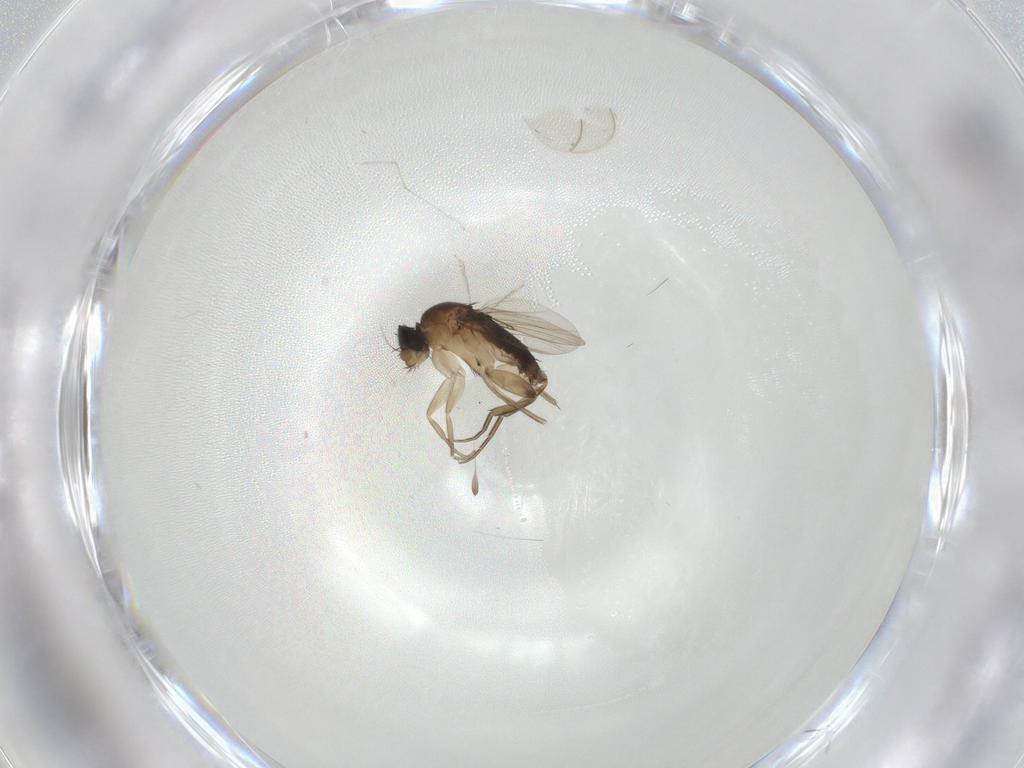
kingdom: Animalia
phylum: Arthropoda
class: Insecta
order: Diptera
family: Phoridae
